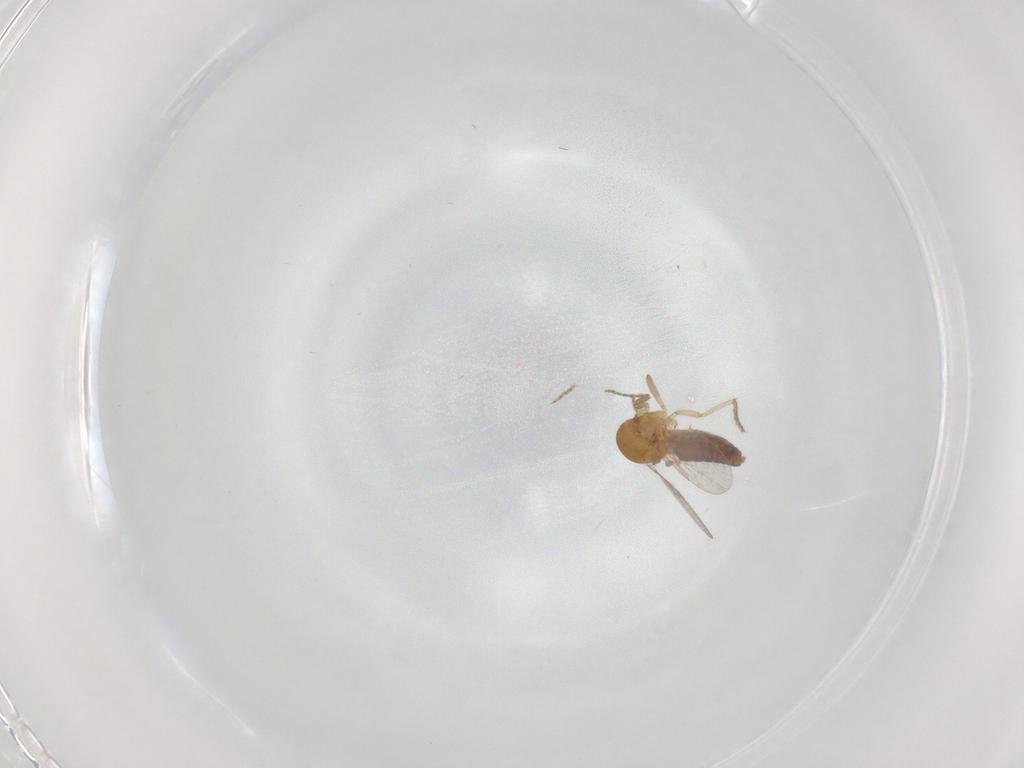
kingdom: Animalia
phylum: Arthropoda
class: Insecta
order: Diptera
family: Ceratopogonidae
